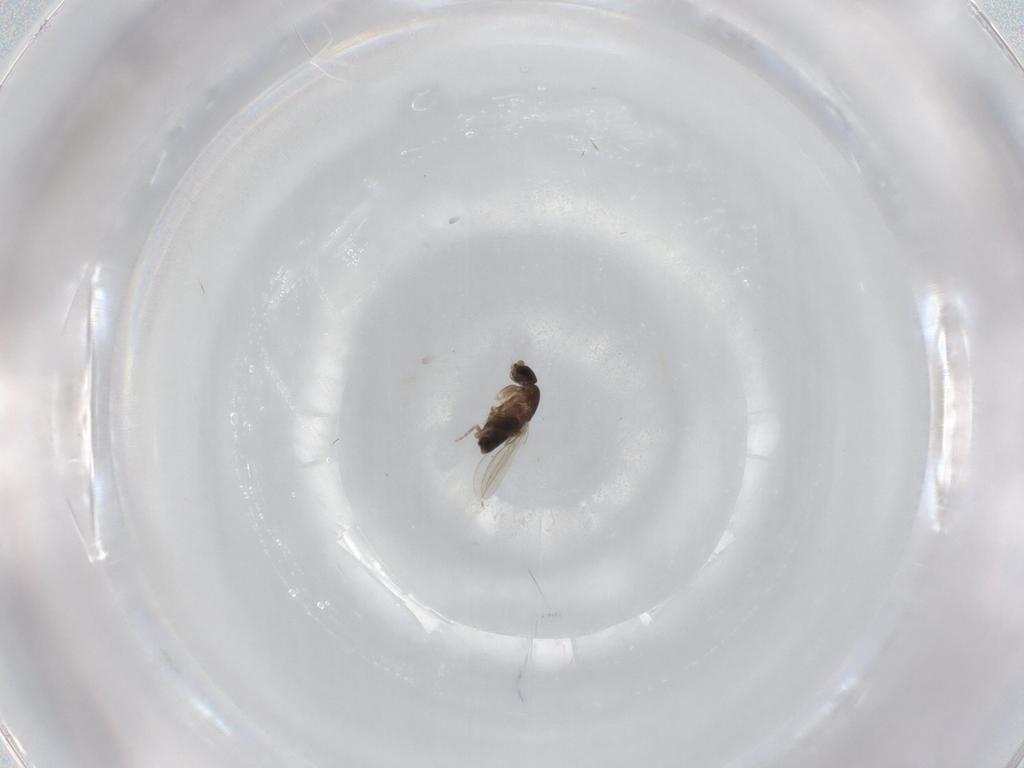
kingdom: Animalia
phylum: Arthropoda
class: Insecta
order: Diptera
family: Phoridae
